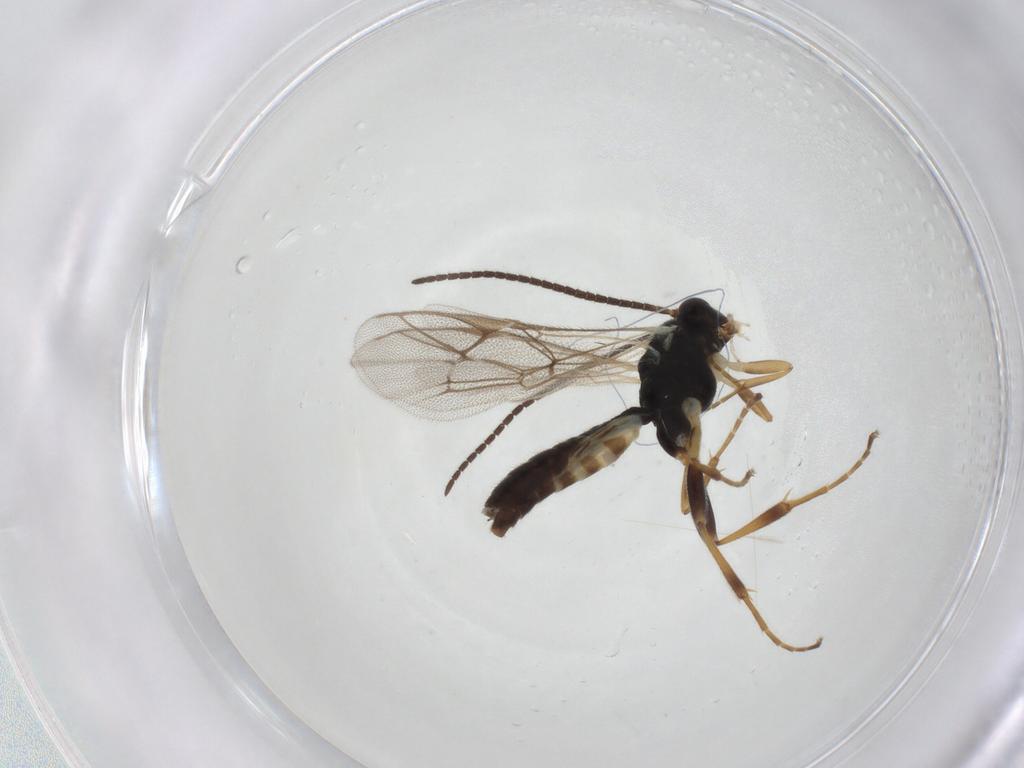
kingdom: Animalia
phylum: Arthropoda
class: Insecta
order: Hymenoptera
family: Ichneumonidae
